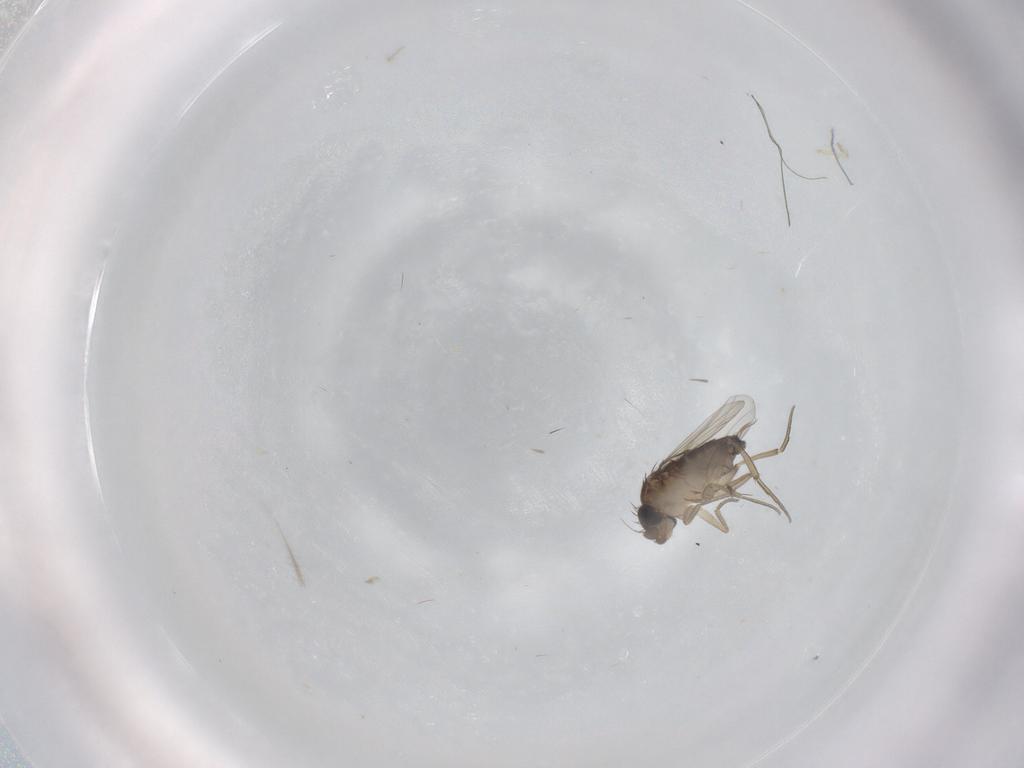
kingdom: Animalia
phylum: Arthropoda
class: Insecta
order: Diptera
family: Phoridae
